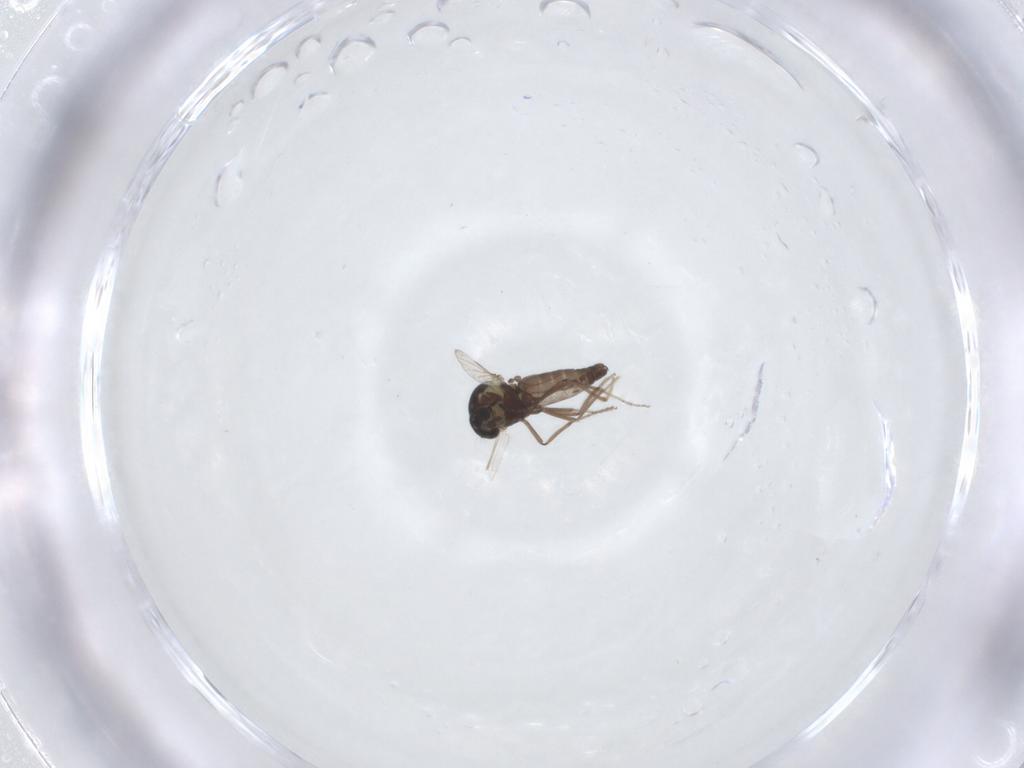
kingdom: Animalia
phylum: Arthropoda
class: Insecta
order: Diptera
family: Ceratopogonidae
